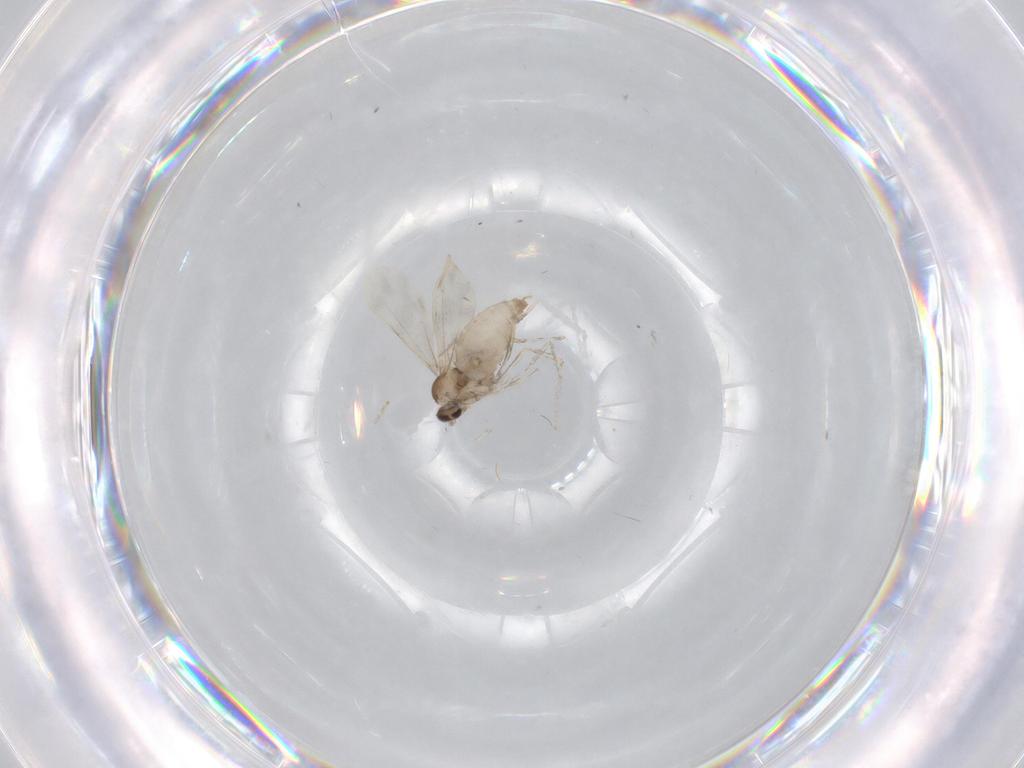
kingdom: Animalia
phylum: Arthropoda
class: Insecta
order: Diptera
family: Cecidomyiidae
